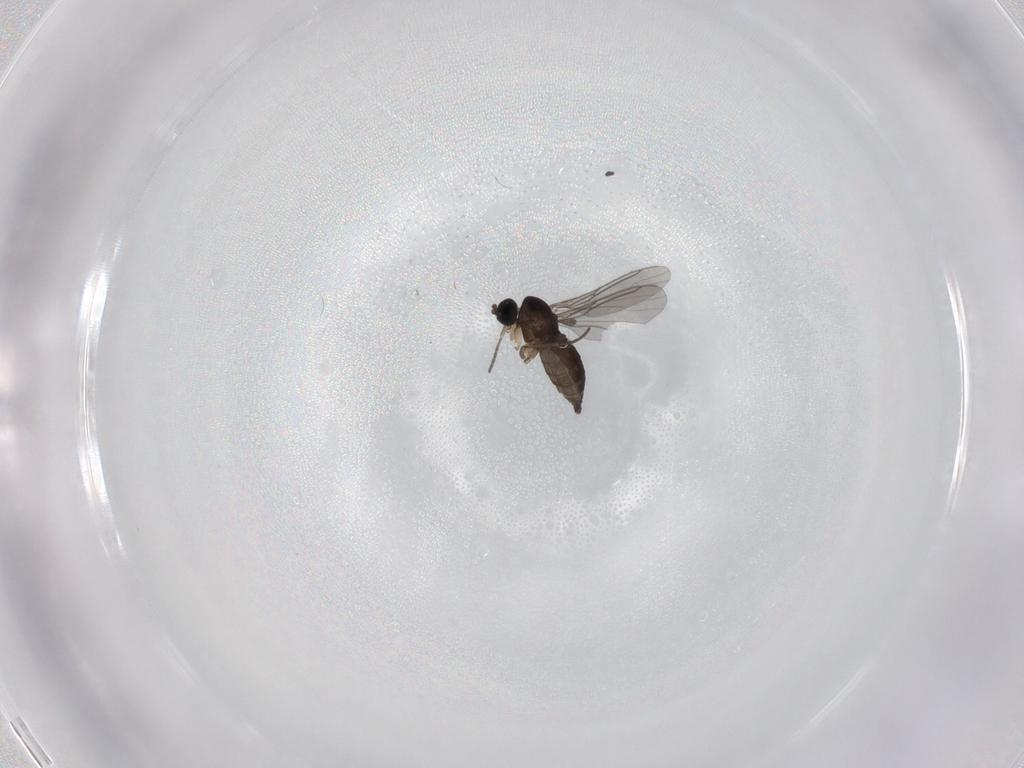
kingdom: Animalia
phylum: Arthropoda
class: Insecta
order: Diptera
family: Sciaridae
